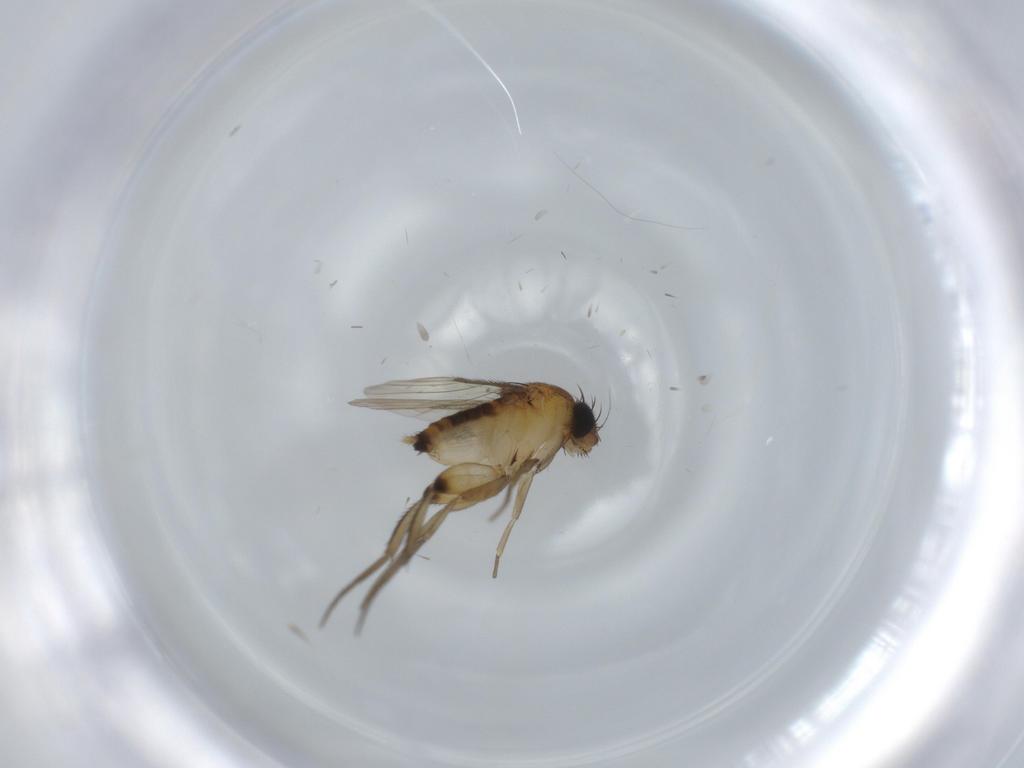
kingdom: Animalia
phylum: Arthropoda
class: Insecta
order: Diptera
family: Phoridae
